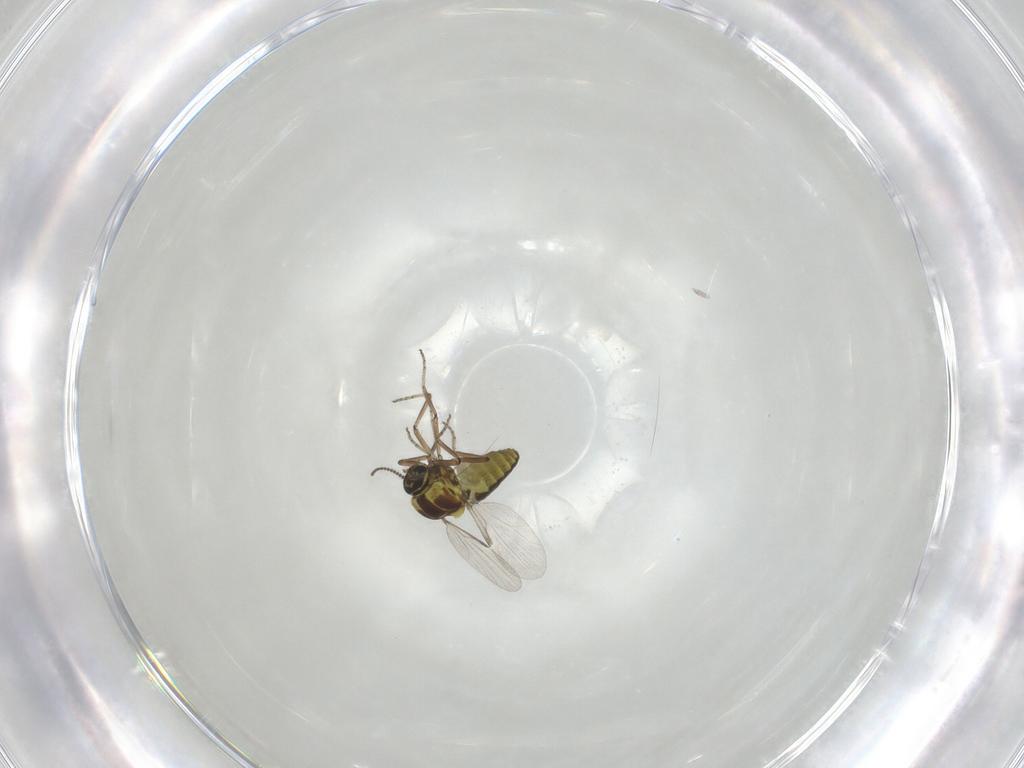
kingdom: Animalia
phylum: Arthropoda
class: Insecta
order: Diptera
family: Ceratopogonidae
